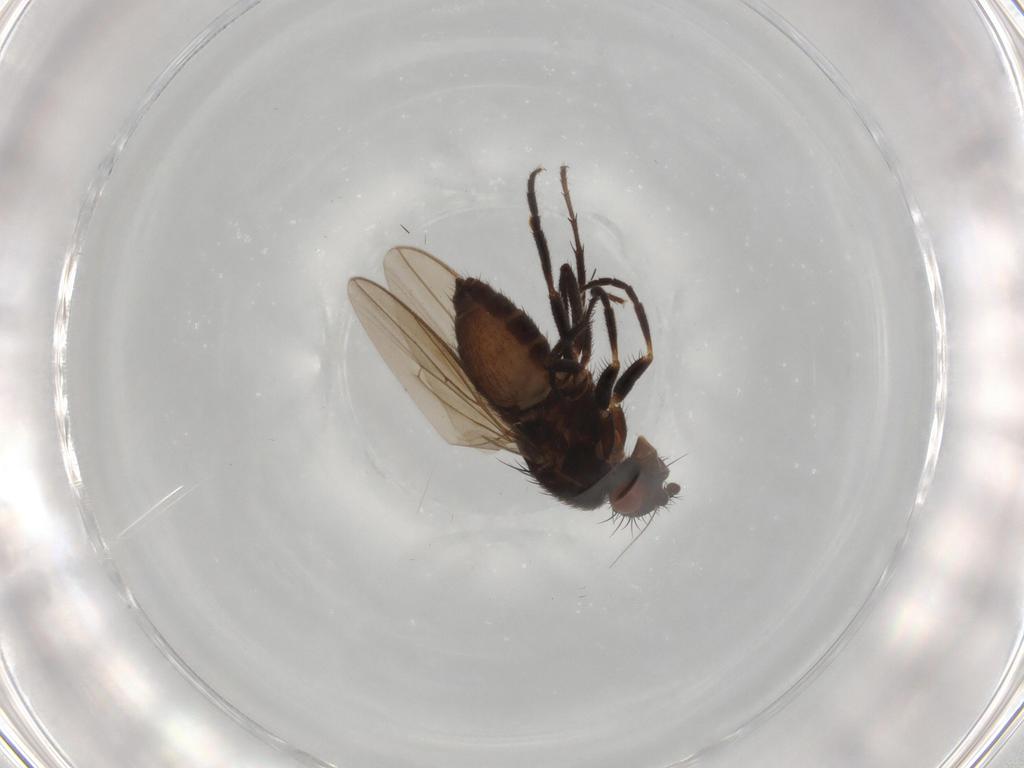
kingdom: Animalia
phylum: Arthropoda
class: Insecta
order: Diptera
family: Sphaeroceridae
